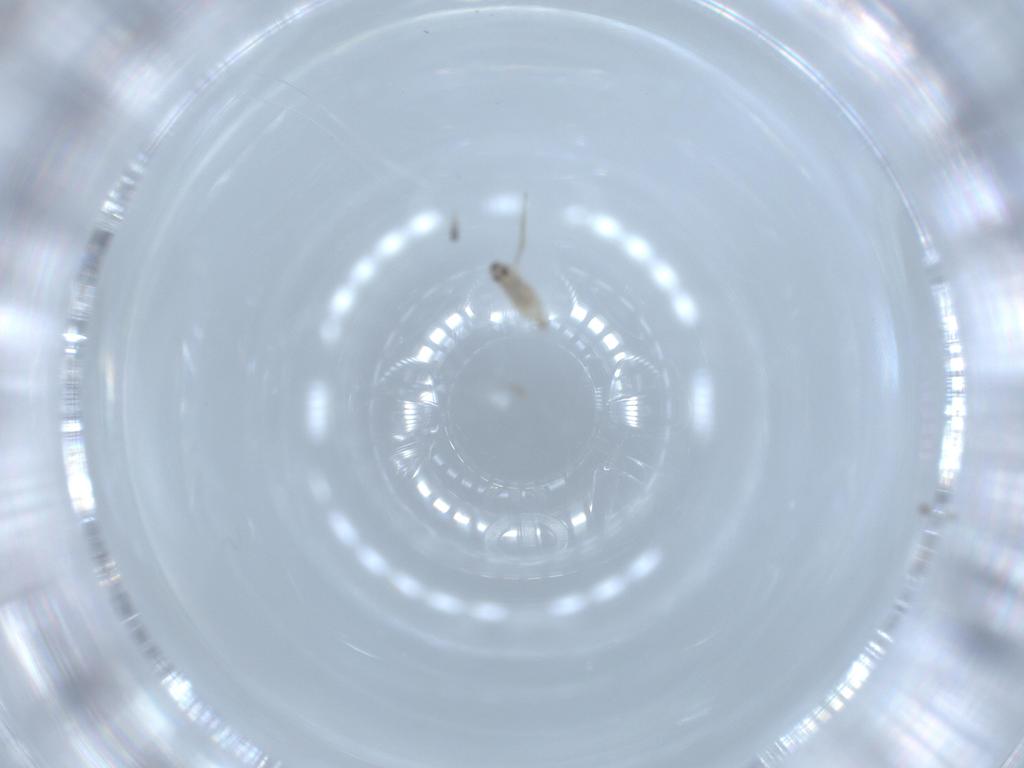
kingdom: Animalia
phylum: Arthropoda
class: Insecta
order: Diptera
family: Cecidomyiidae
